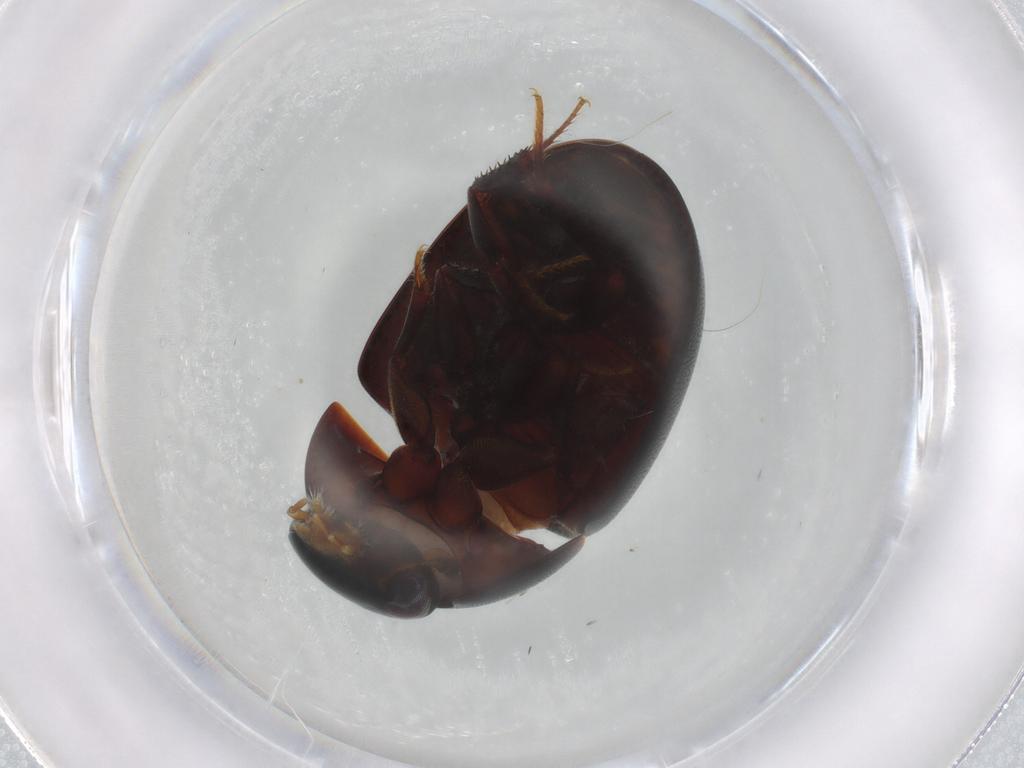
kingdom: Animalia
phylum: Arthropoda
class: Insecta
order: Coleoptera
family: Hydrophilidae
